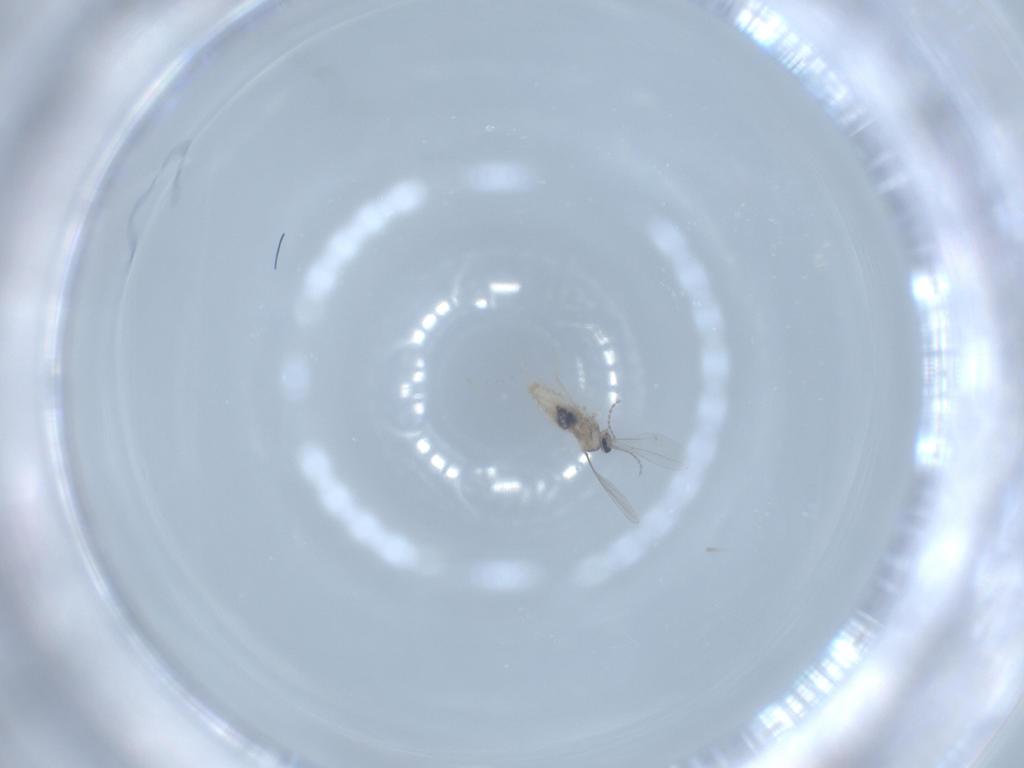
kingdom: Animalia
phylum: Arthropoda
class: Insecta
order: Diptera
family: Cecidomyiidae
